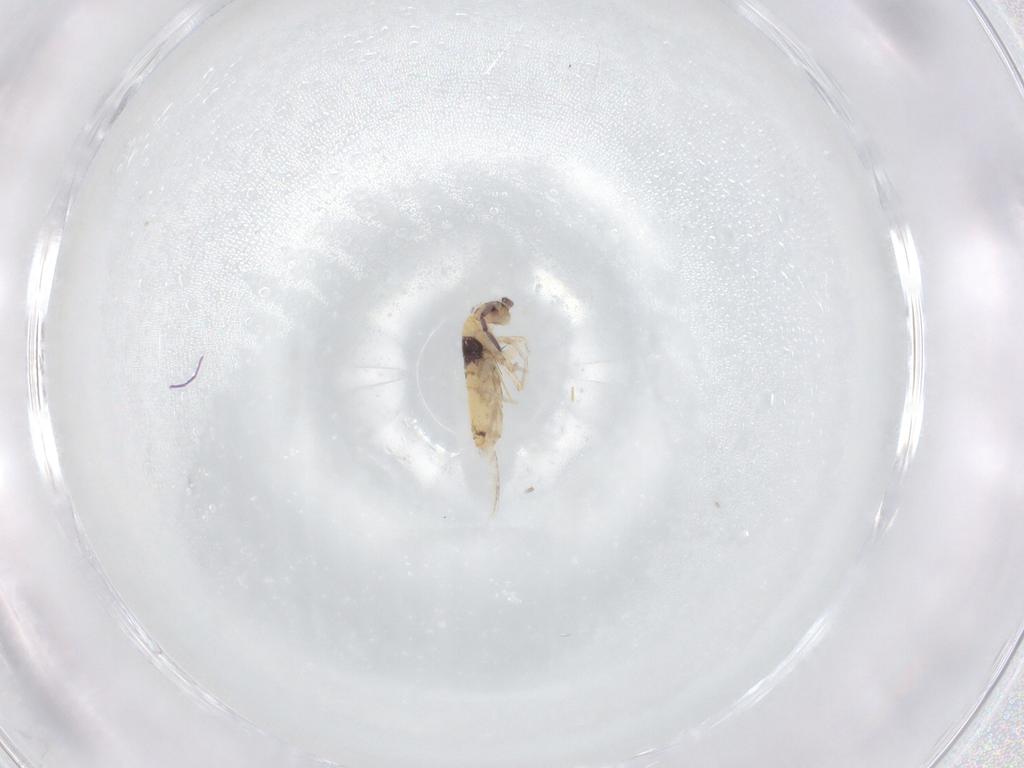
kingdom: Animalia
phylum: Arthropoda
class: Collembola
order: Entomobryomorpha
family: Entomobryidae
